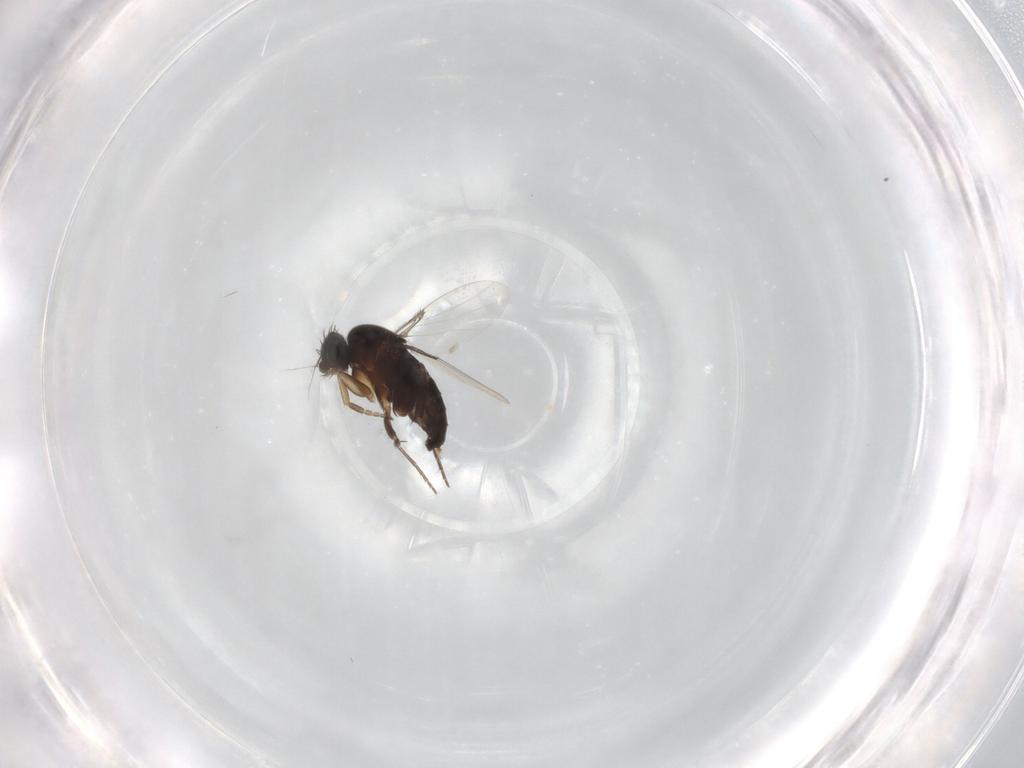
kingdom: Animalia
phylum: Arthropoda
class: Insecta
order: Diptera
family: Phoridae
